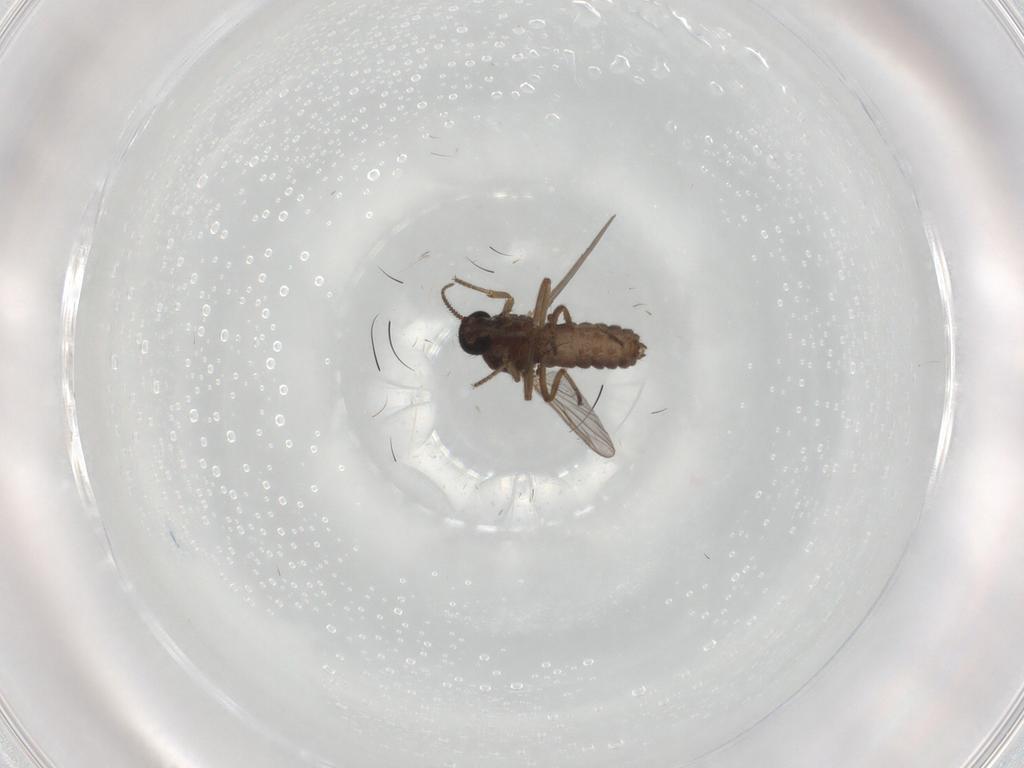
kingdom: Animalia
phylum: Arthropoda
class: Insecta
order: Diptera
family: Ceratopogonidae
